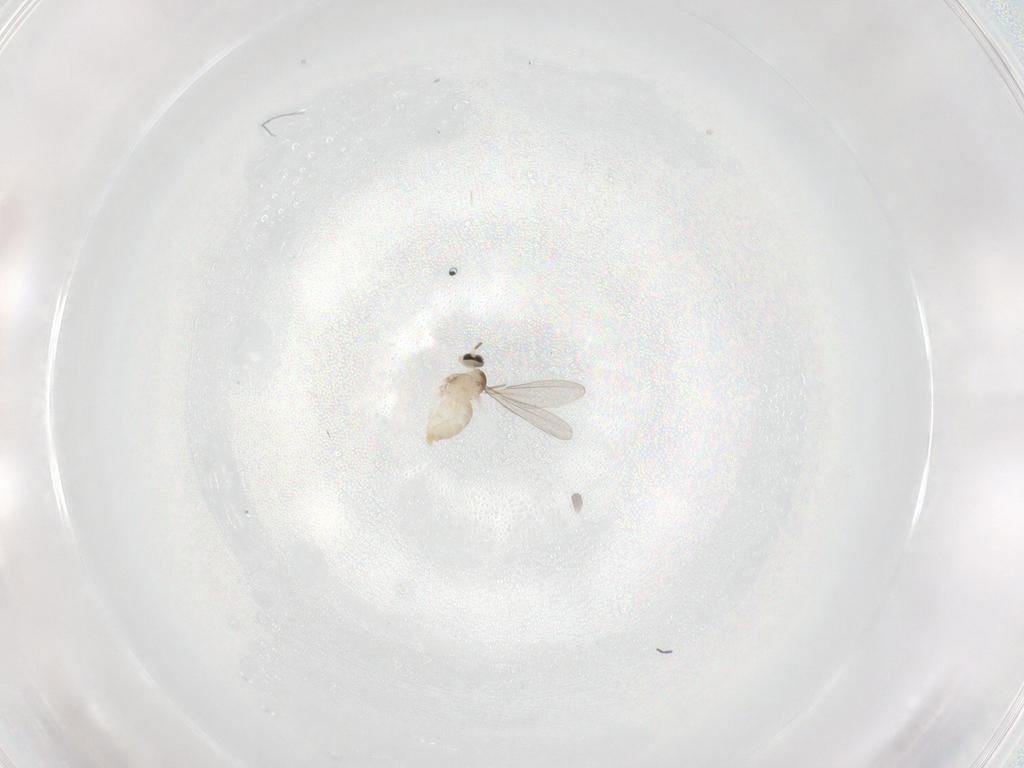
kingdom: Animalia
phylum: Arthropoda
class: Insecta
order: Diptera
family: Cecidomyiidae
